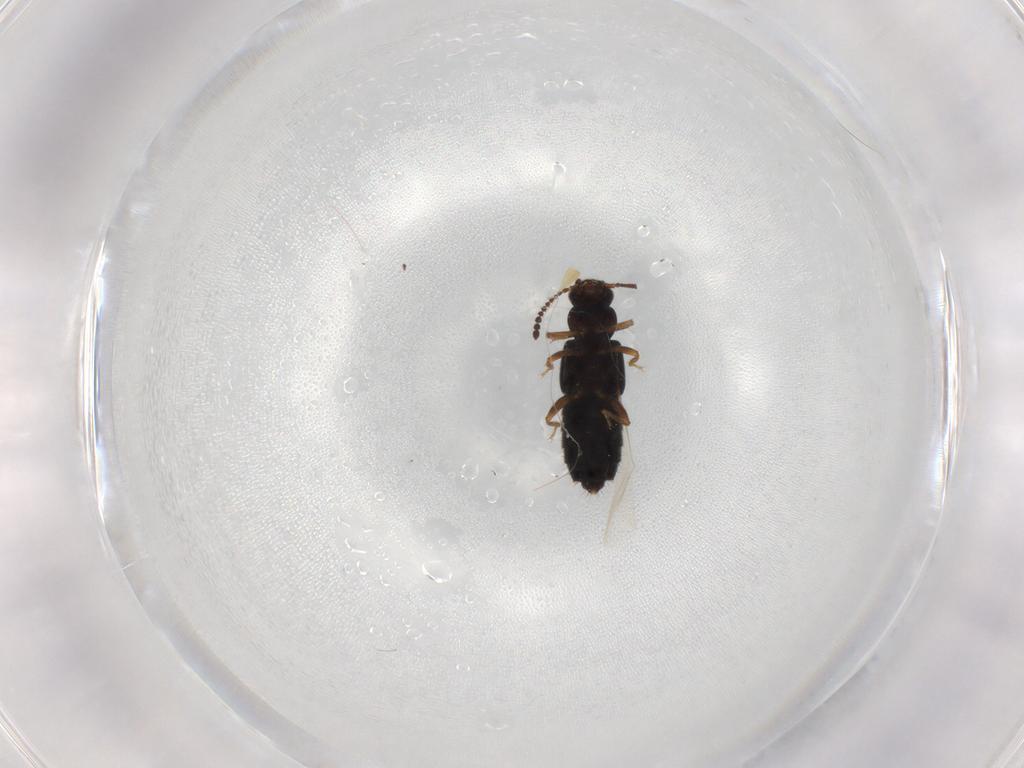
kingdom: Animalia
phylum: Arthropoda
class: Insecta
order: Coleoptera
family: Staphylinidae
